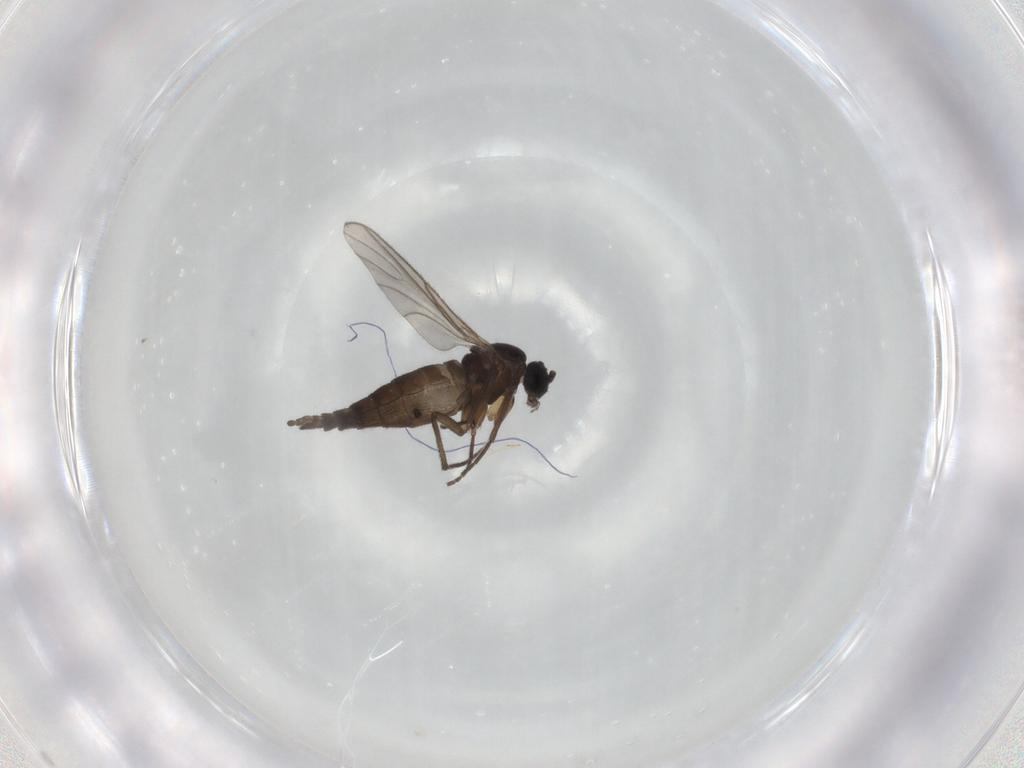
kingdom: Animalia
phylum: Arthropoda
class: Insecta
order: Diptera
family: Sciaridae
